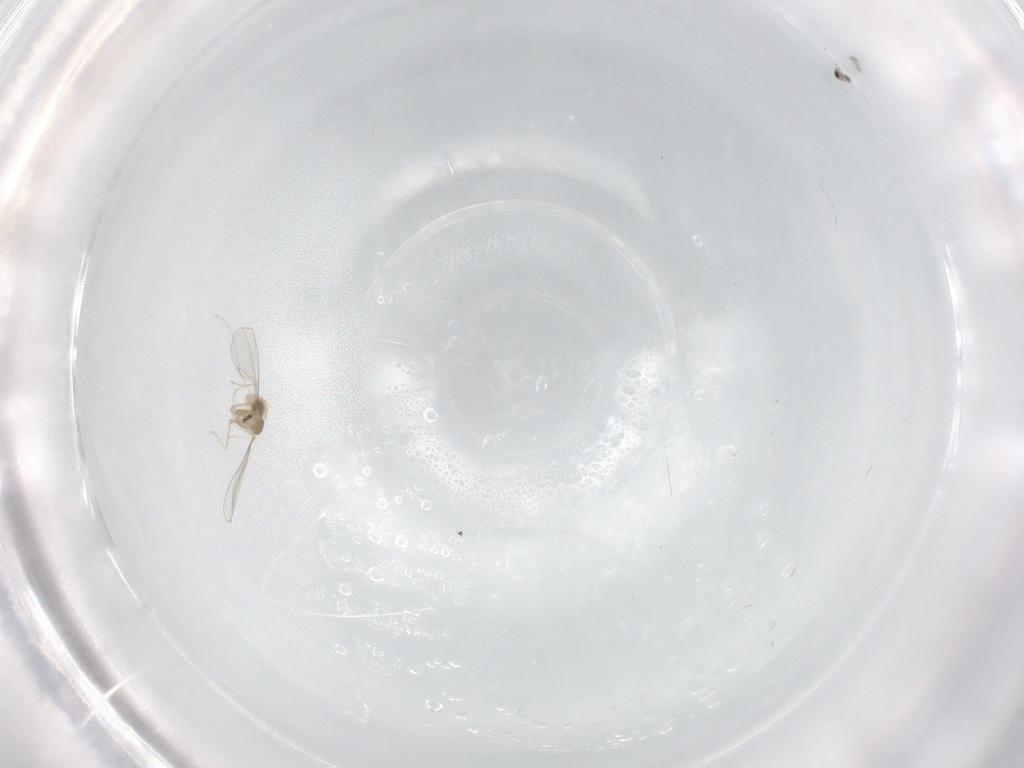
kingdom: Animalia
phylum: Arthropoda
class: Insecta
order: Diptera
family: Cecidomyiidae
